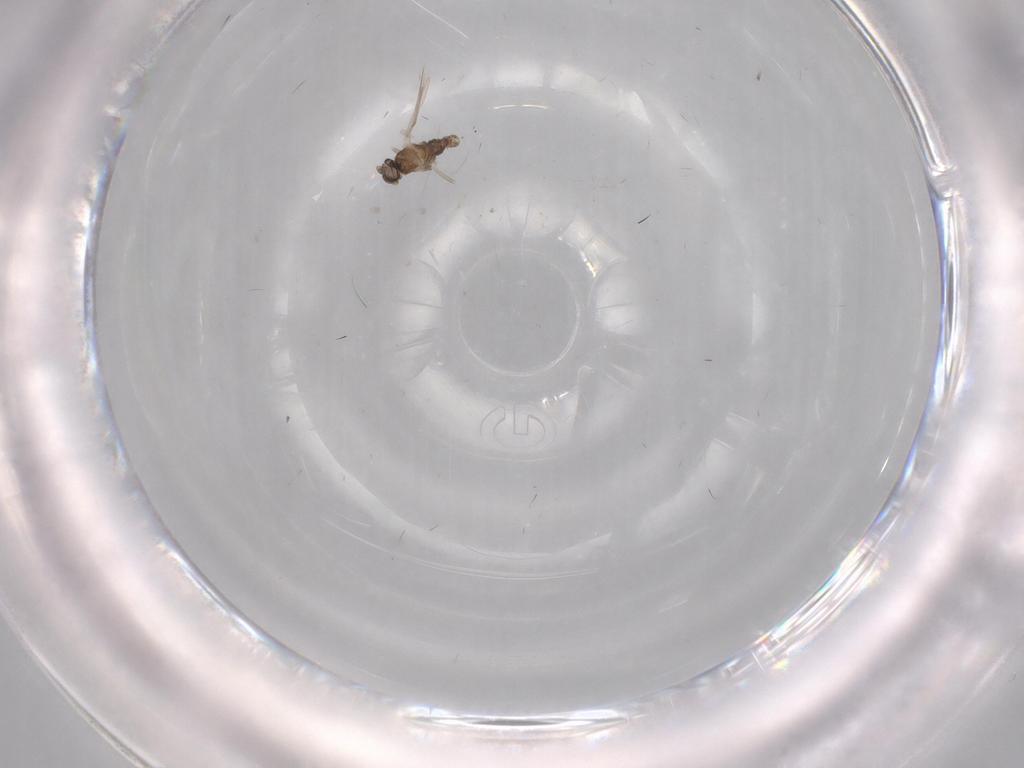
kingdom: Animalia
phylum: Arthropoda
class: Insecta
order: Diptera
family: Cecidomyiidae
